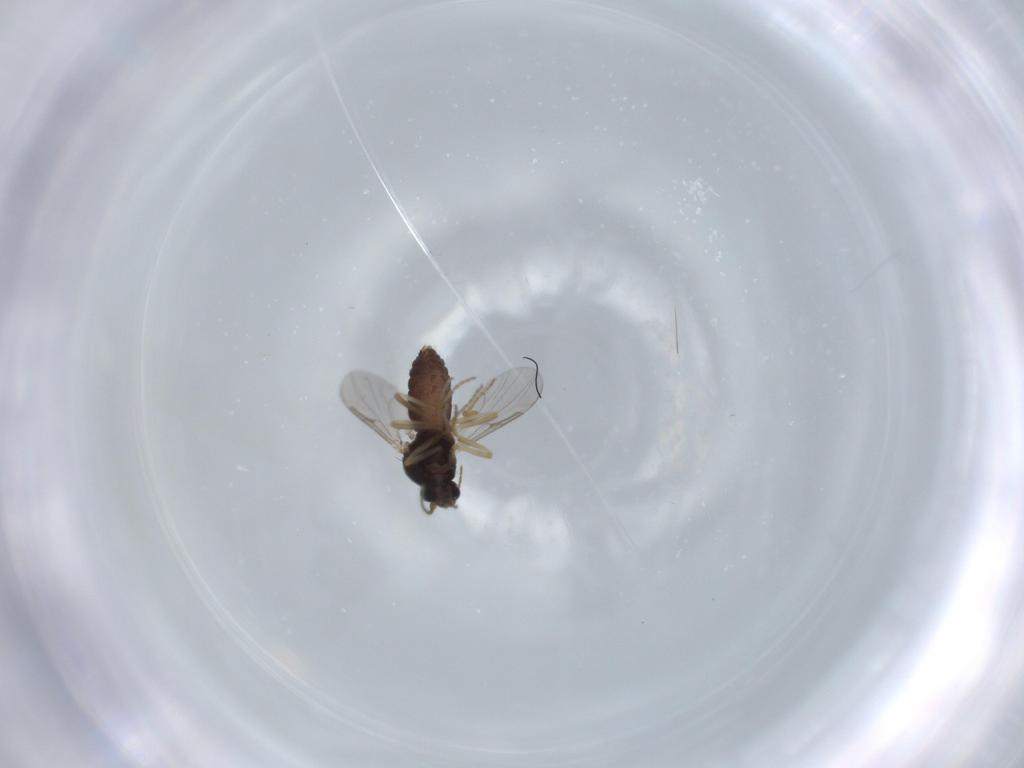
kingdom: Animalia
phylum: Arthropoda
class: Insecta
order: Diptera
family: Ceratopogonidae
